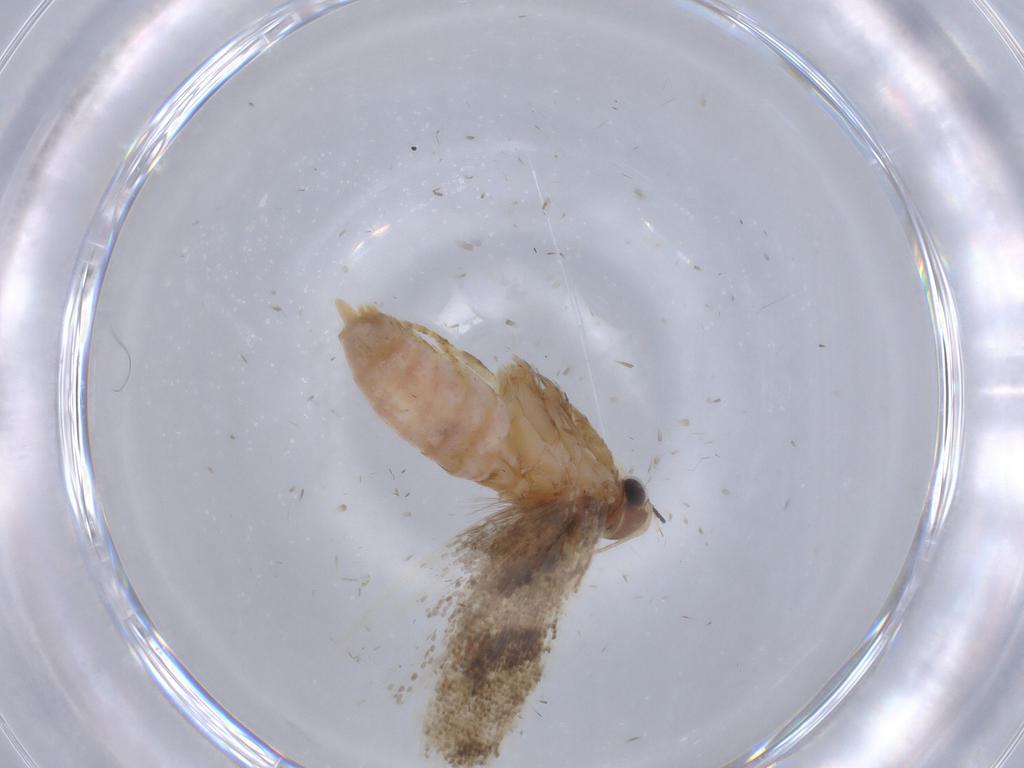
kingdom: Animalia
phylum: Arthropoda
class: Insecta
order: Lepidoptera
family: Gelechiidae
